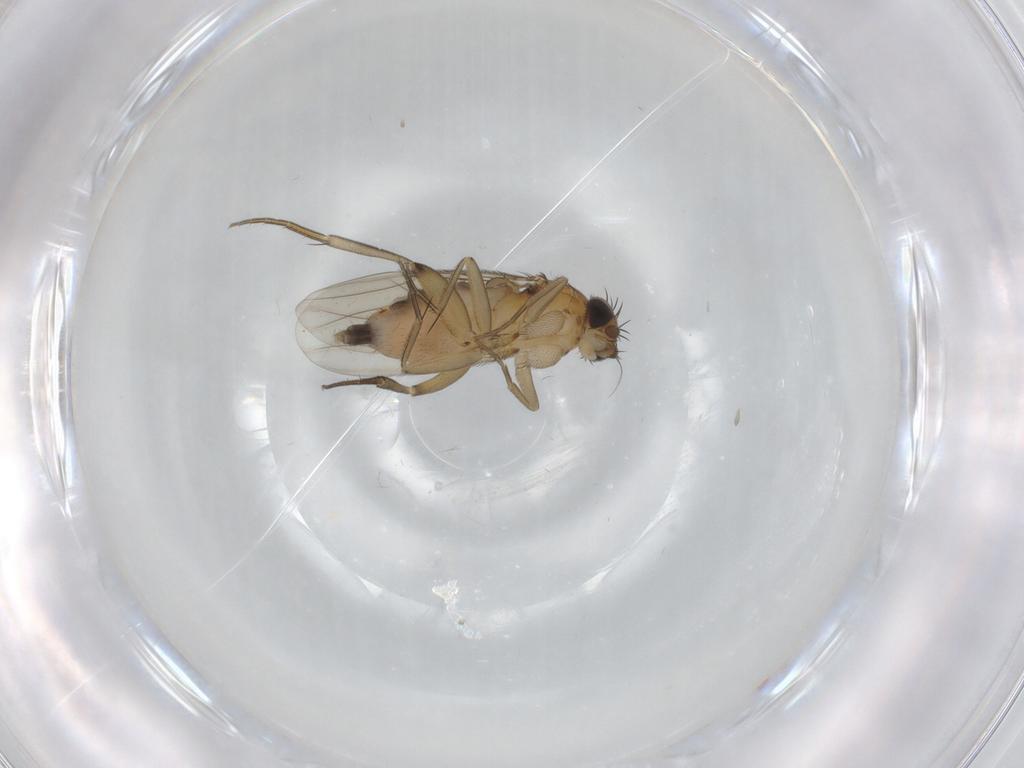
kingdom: Animalia
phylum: Arthropoda
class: Insecta
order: Diptera
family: Phoridae
